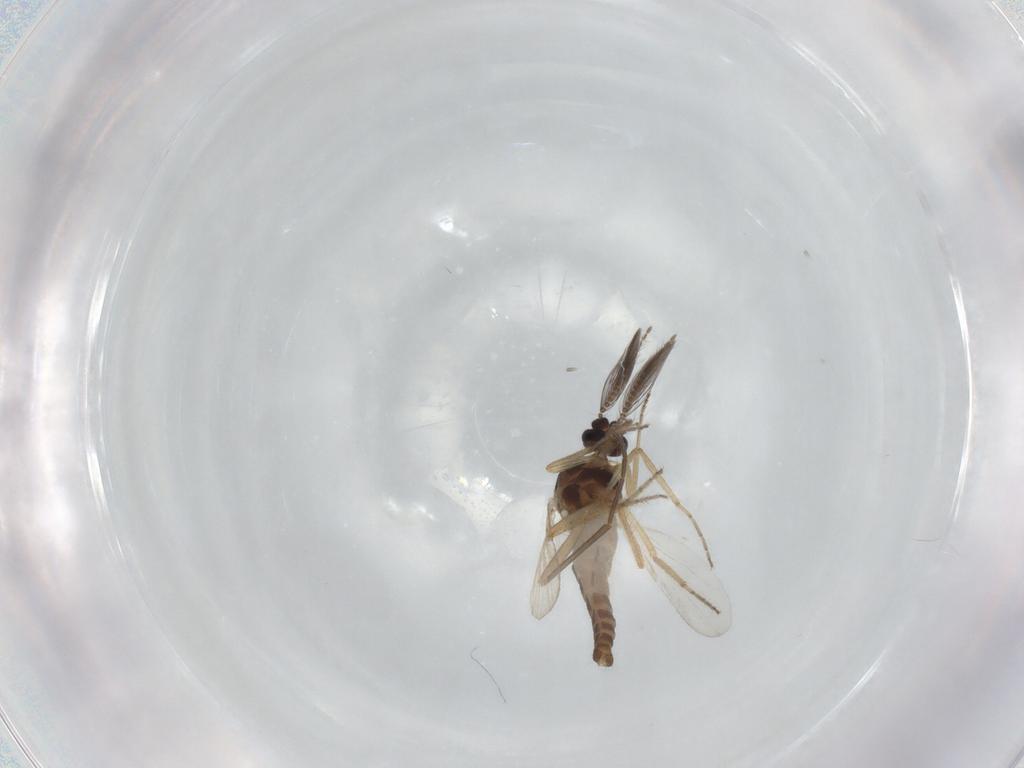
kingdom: Animalia
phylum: Arthropoda
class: Insecta
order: Diptera
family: Ceratopogonidae
